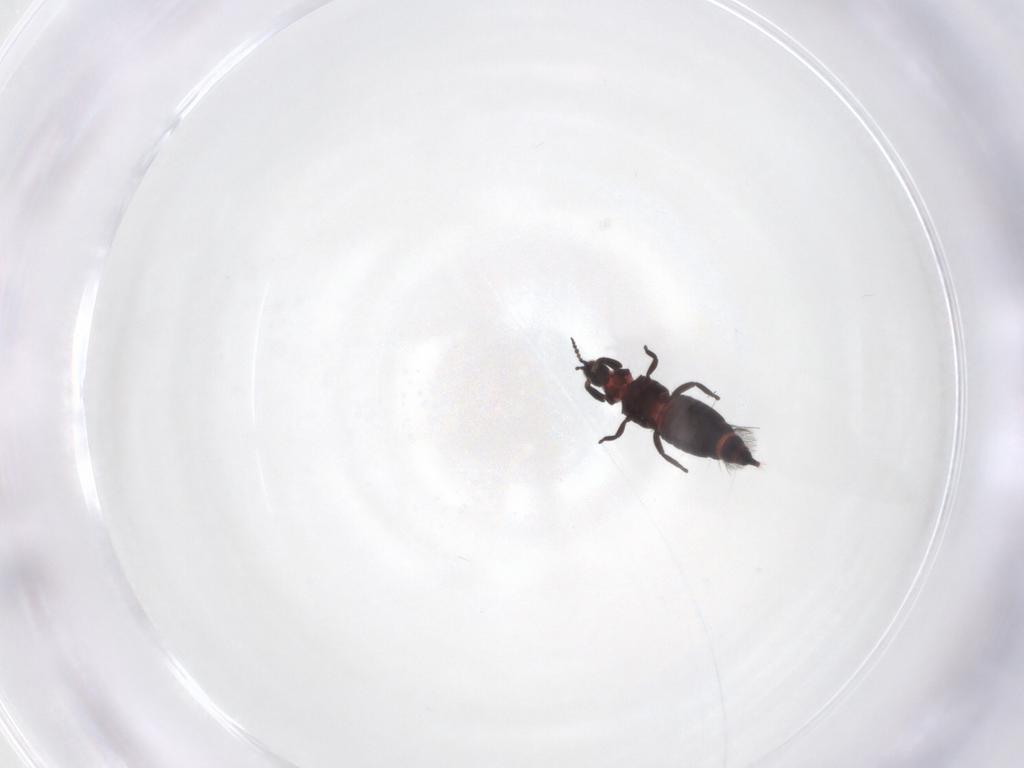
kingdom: Animalia
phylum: Arthropoda
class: Insecta
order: Thysanoptera
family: Phlaeothripidae
